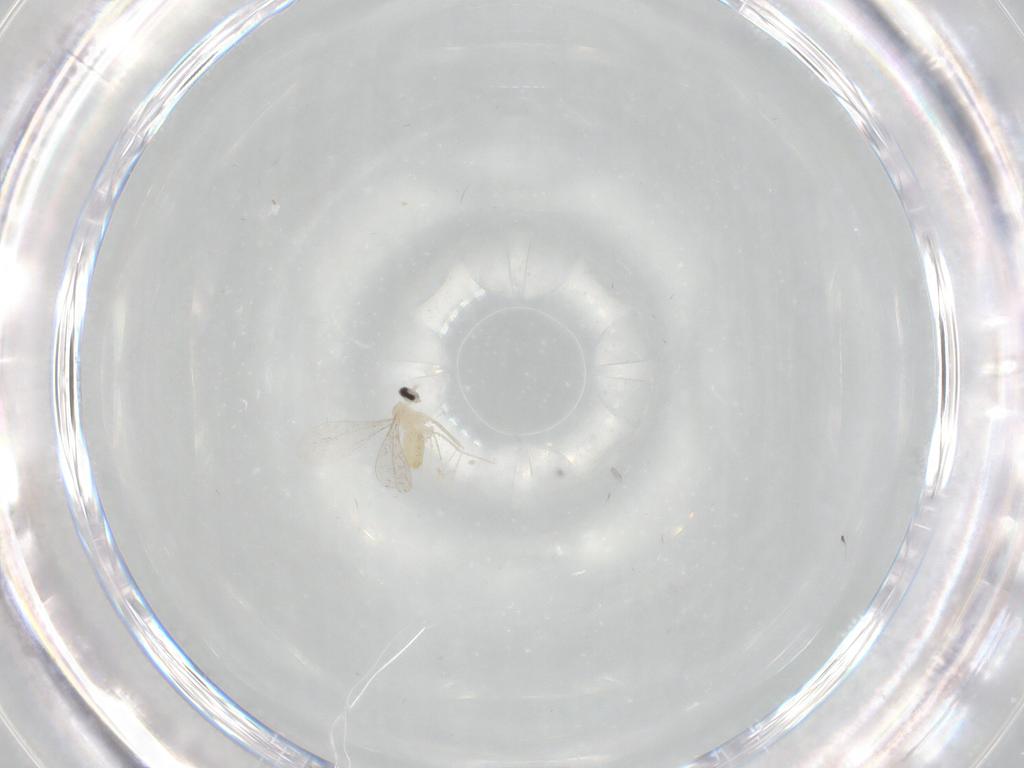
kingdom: Animalia
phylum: Arthropoda
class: Insecta
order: Diptera
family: Cecidomyiidae
